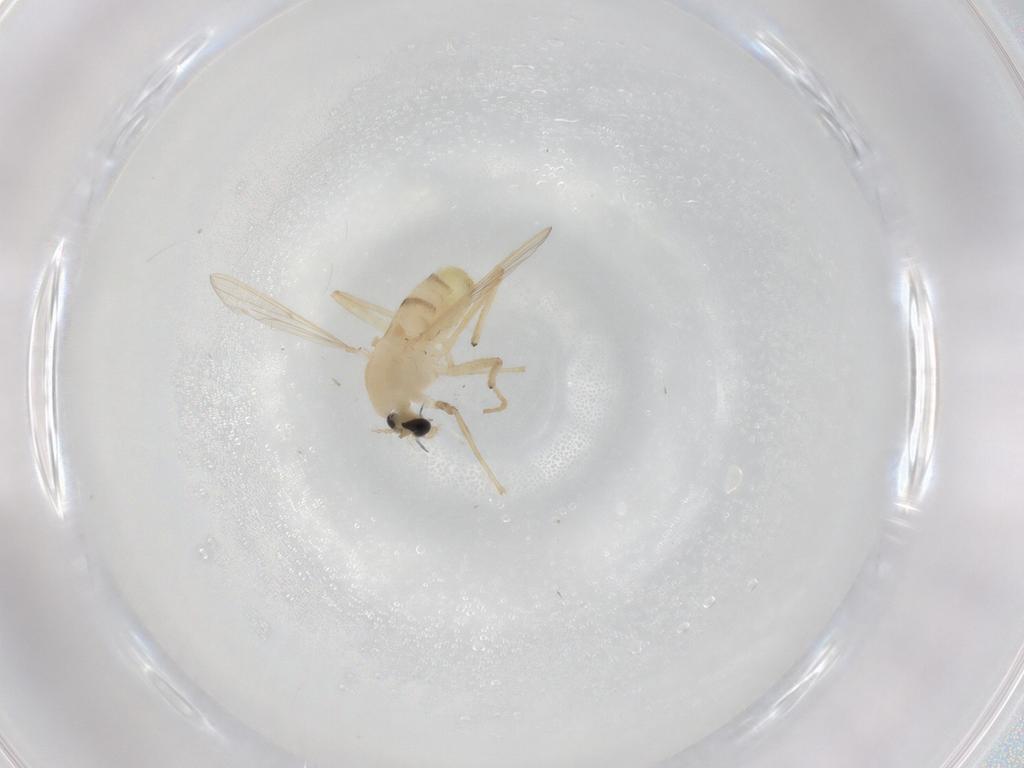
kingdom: Animalia
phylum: Arthropoda
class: Insecta
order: Diptera
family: Chironomidae
